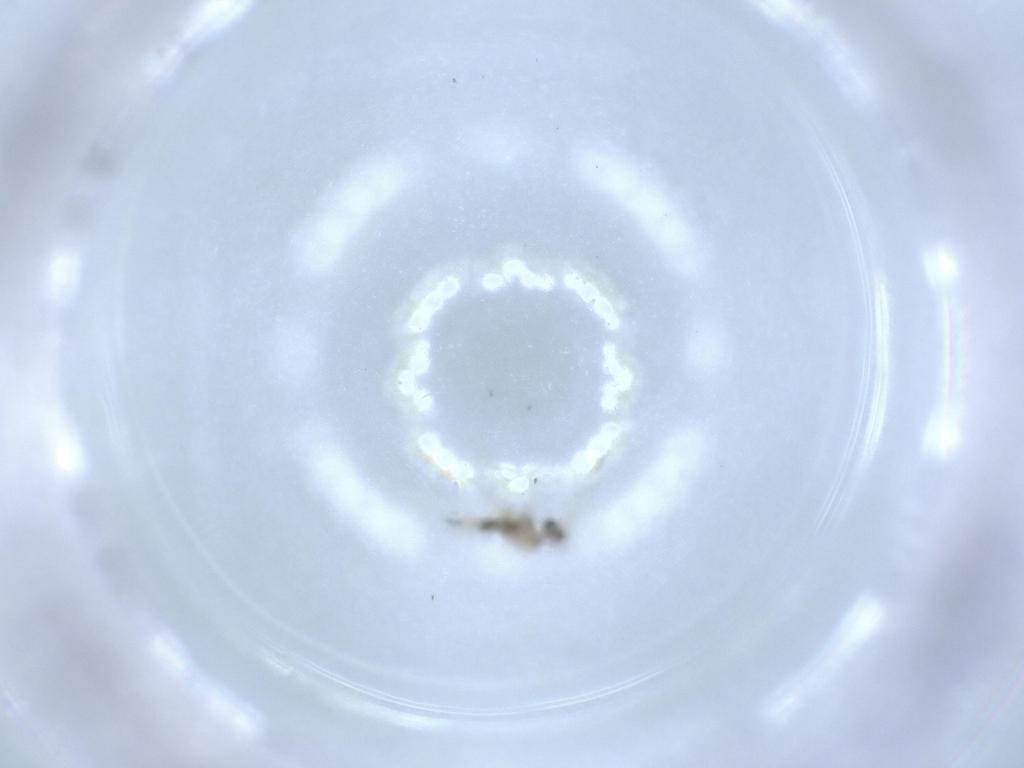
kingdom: Animalia
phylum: Arthropoda
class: Insecta
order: Diptera
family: Cecidomyiidae
